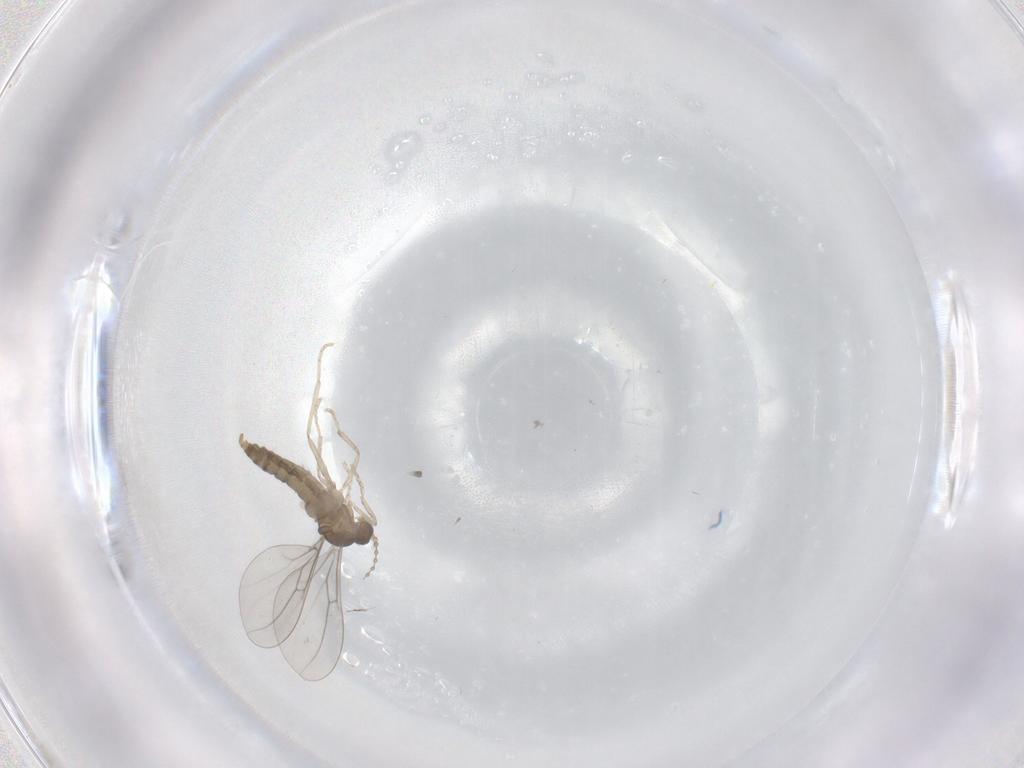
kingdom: Animalia
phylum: Arthropoda
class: Insecta
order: Diptera
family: Cecidomyiidae
